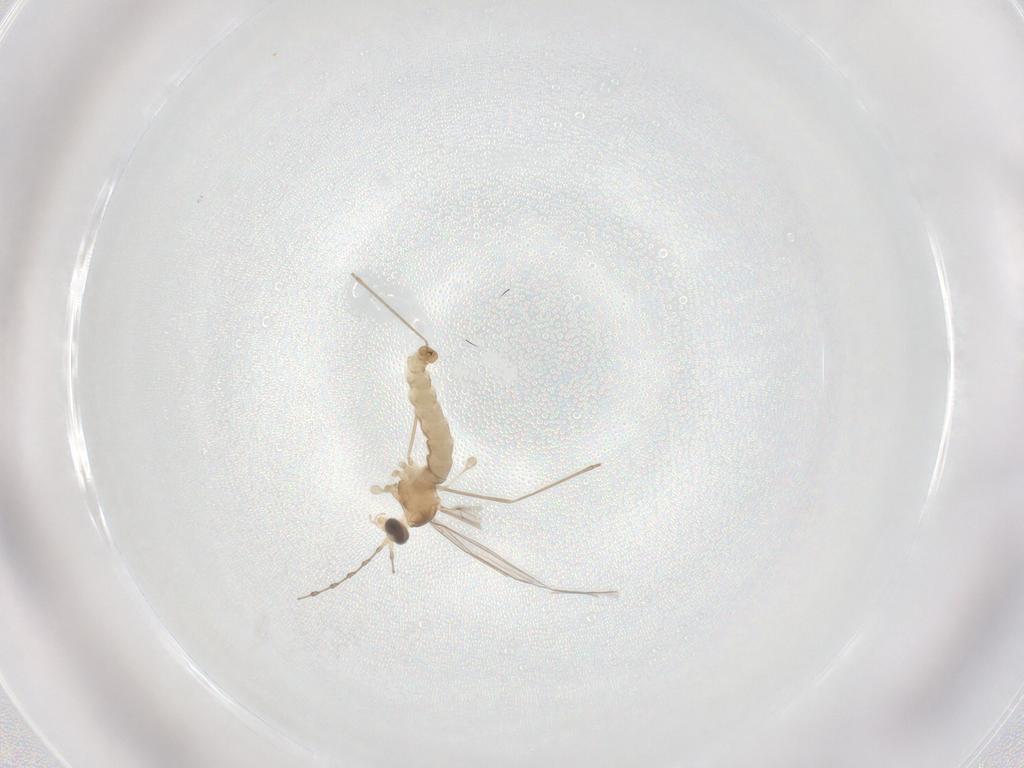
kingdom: Animalia
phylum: Arthropoda
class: Insecta
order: Diptera
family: Cecidomyiidae
